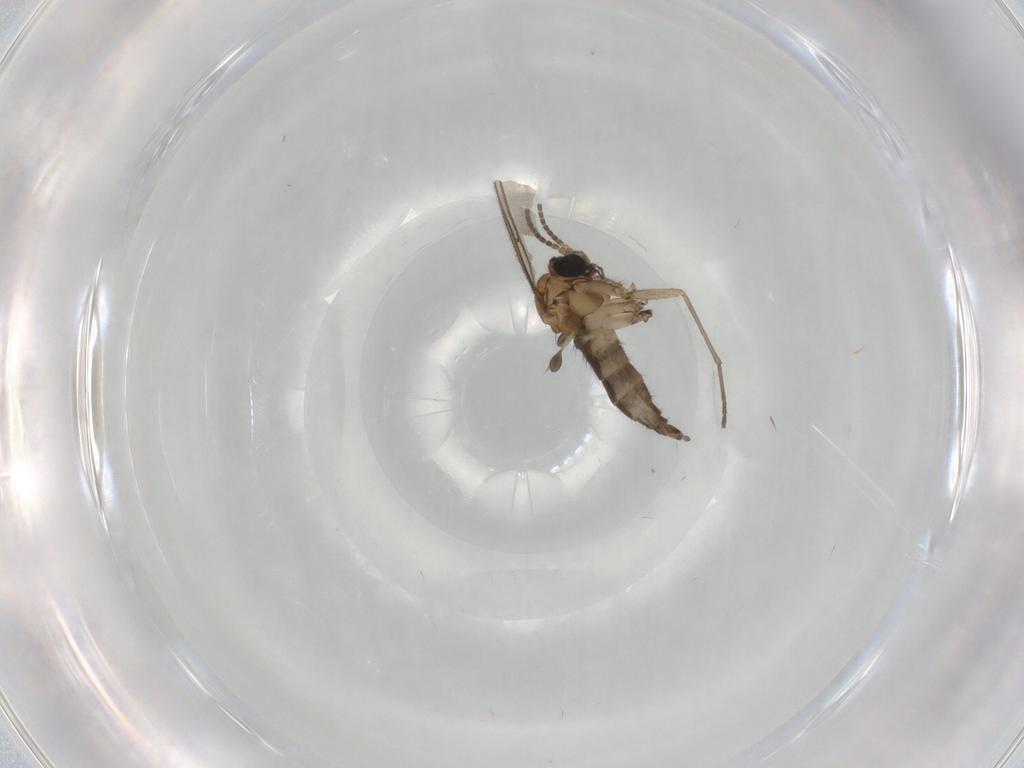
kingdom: Animalia
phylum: Arthropoda
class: Insecta
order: Diptera
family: Sciaridae
